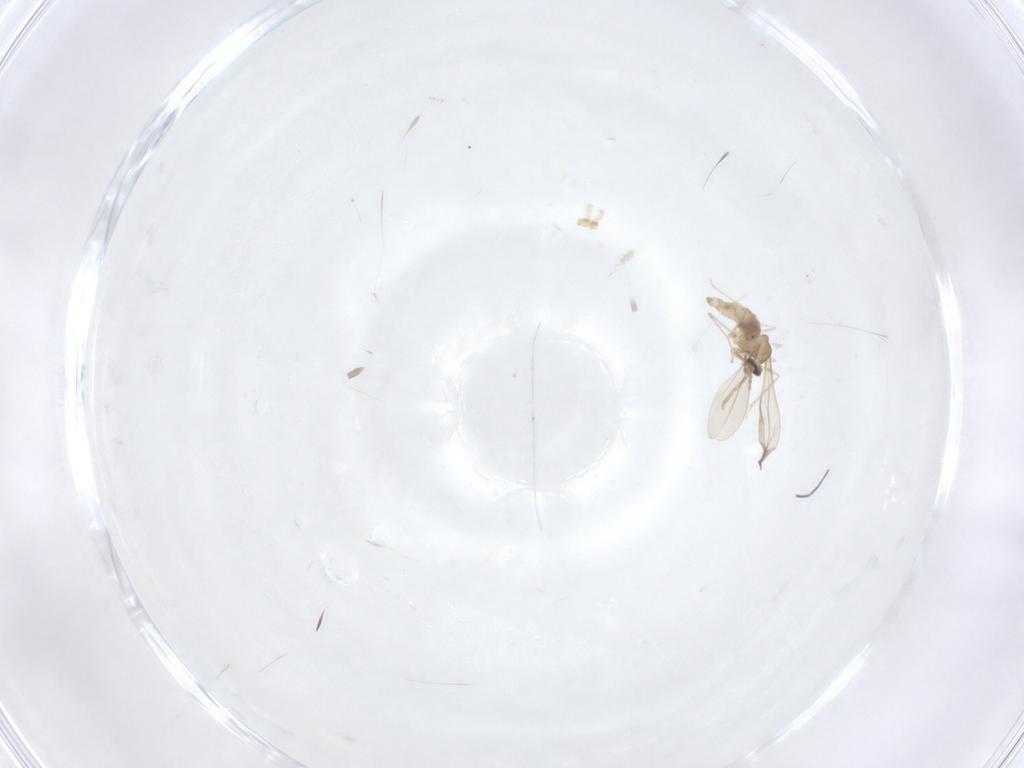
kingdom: Animalia
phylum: Arthropoda
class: Insecta
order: Diptera
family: Cecidomyiidae
